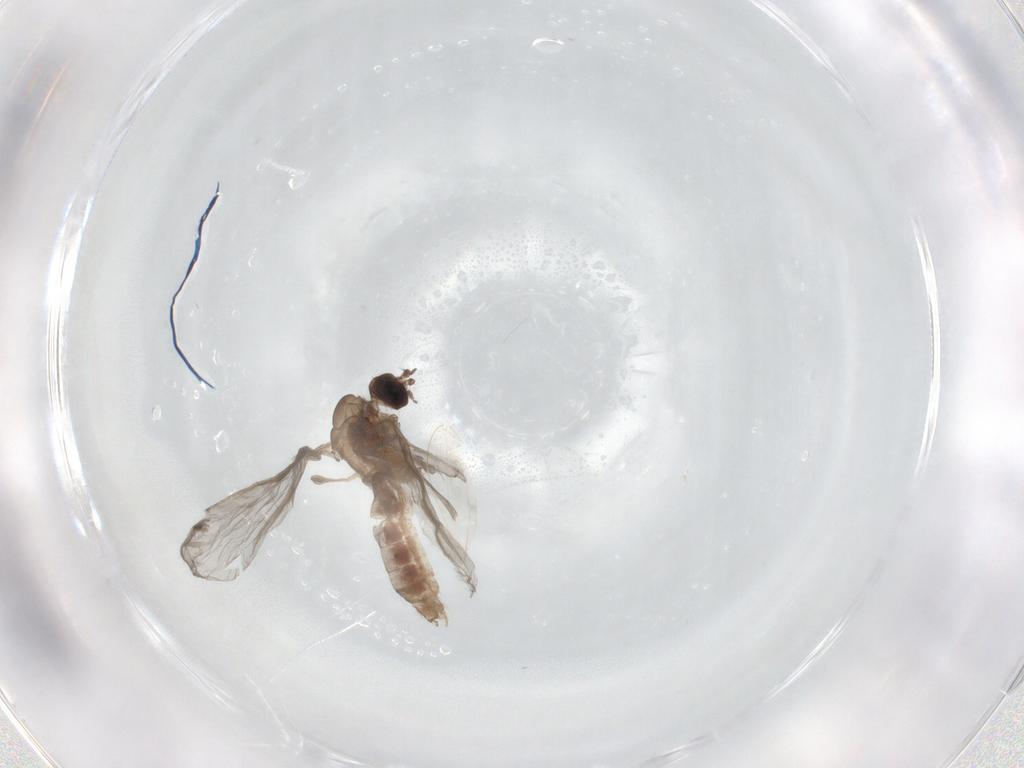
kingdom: Animalia
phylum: Arthropoda
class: Insecta
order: Diptera
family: Cecidomyiidae
